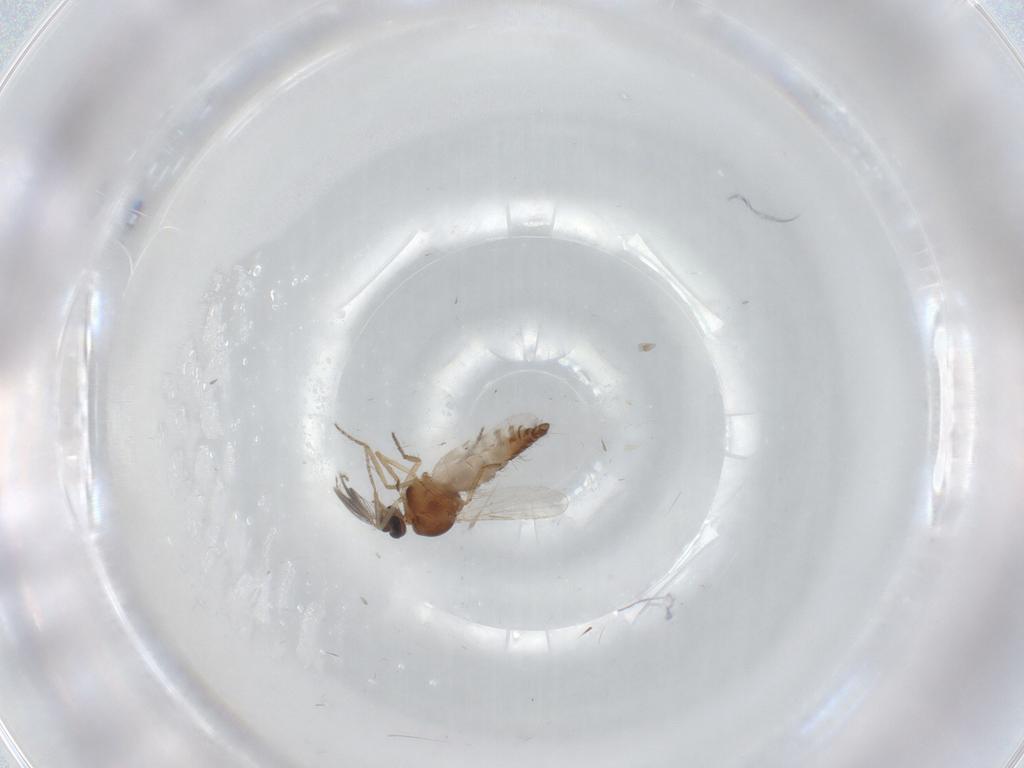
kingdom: Animalia
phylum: Arthropoda
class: Insecta
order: Diptera
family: Ceratopogonidae
